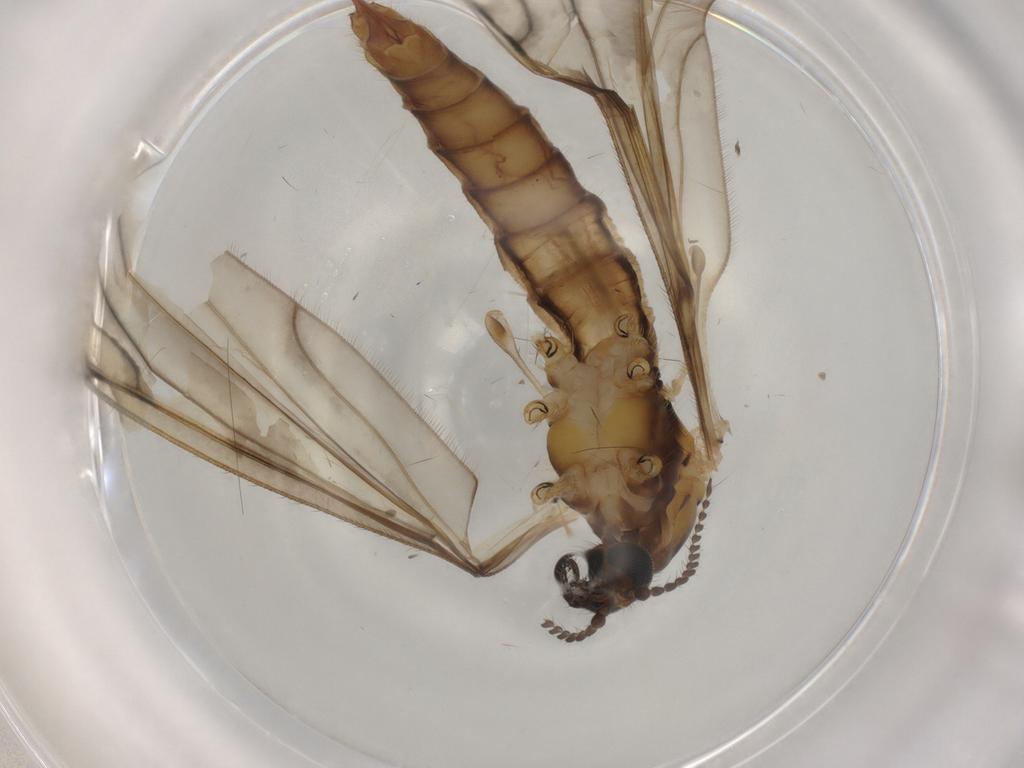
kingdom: Animalia
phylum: Arthropoda
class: Insecta
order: Diptera
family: Limoniidae
